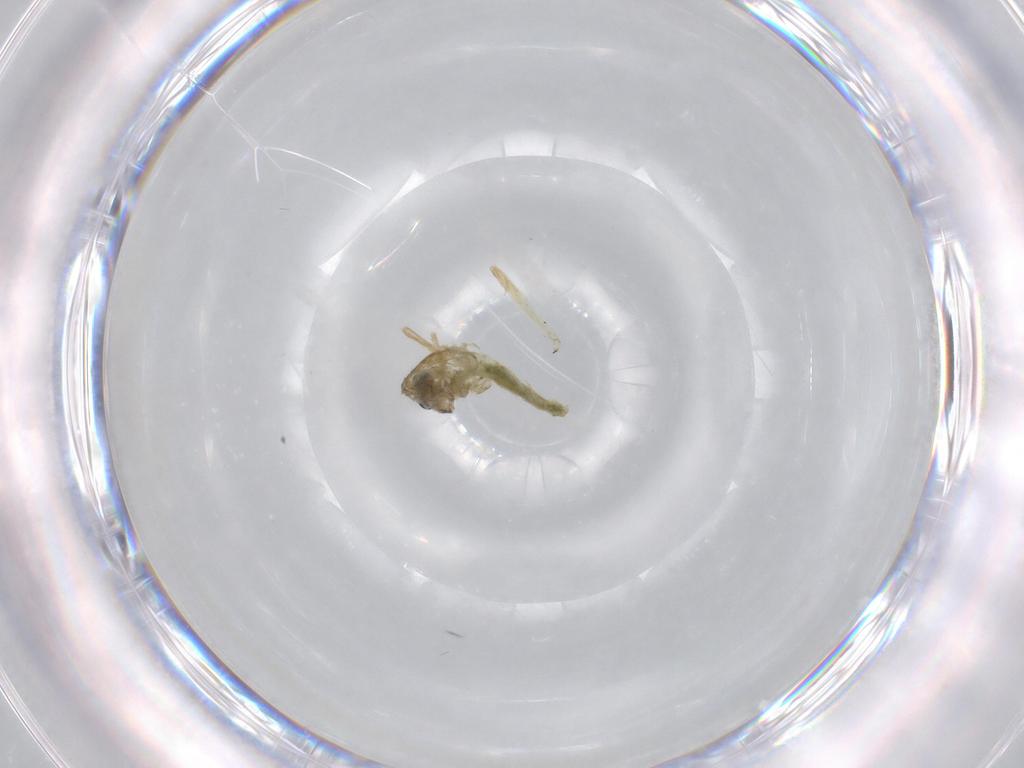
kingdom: Animalia
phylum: Arthropoda
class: Insecta
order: Diptera
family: Chironomidae
